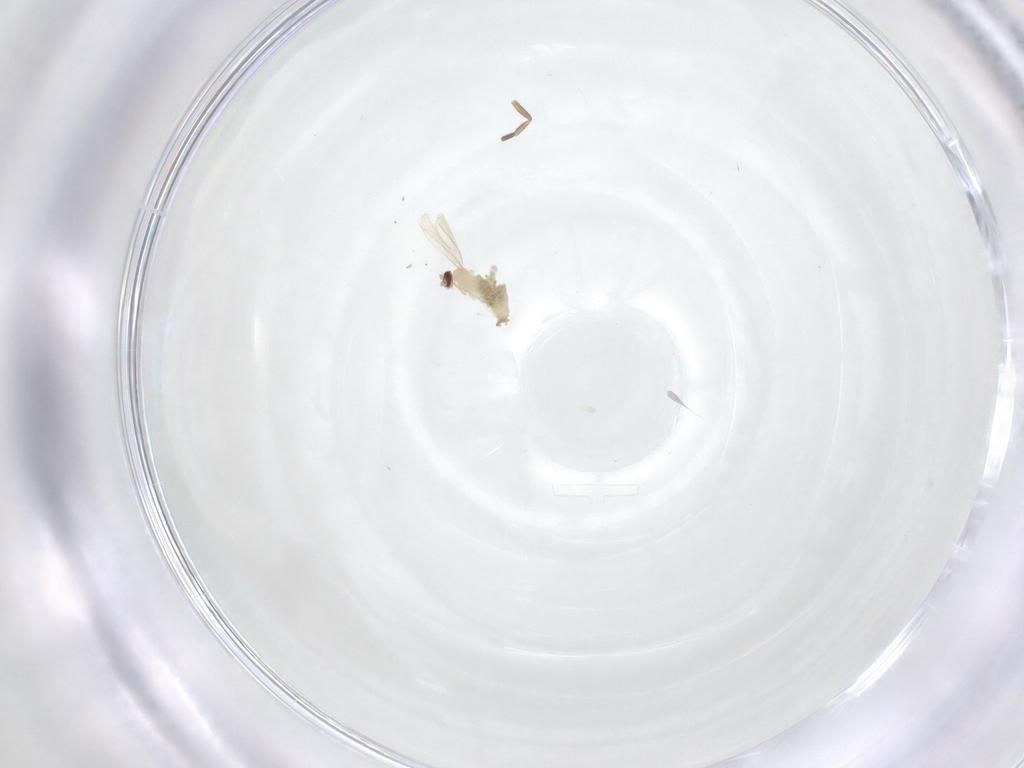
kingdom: Animalia
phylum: Arthropoda
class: Insecta
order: Diptera
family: Cecidomyiidae
